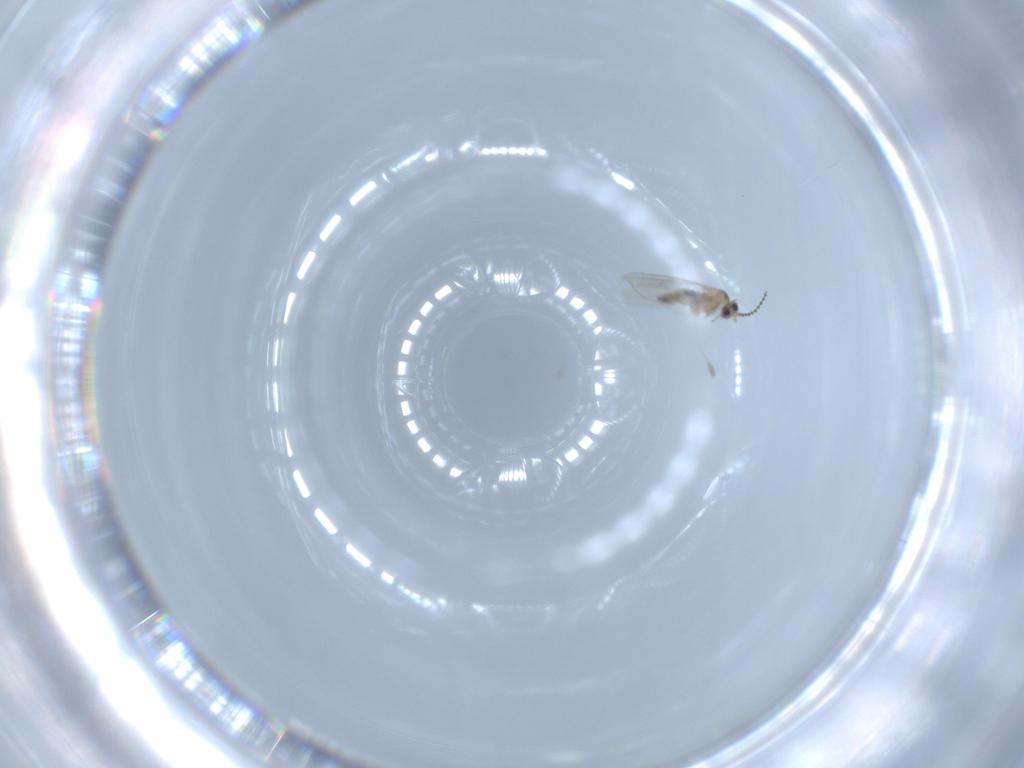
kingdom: Animalia
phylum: Arthropoda
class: Insecta
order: Diptera
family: Cecidomyiidae
